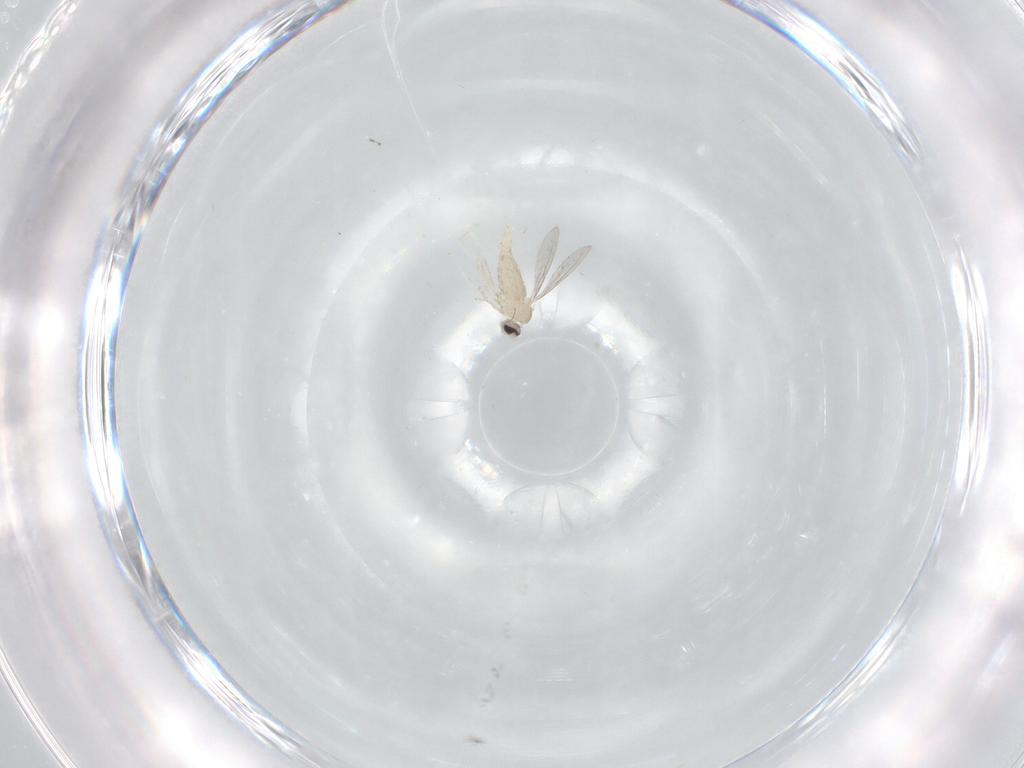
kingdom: Animalia
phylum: Arthropoda
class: Insecta
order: Diptera
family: Cecidomyiidae
